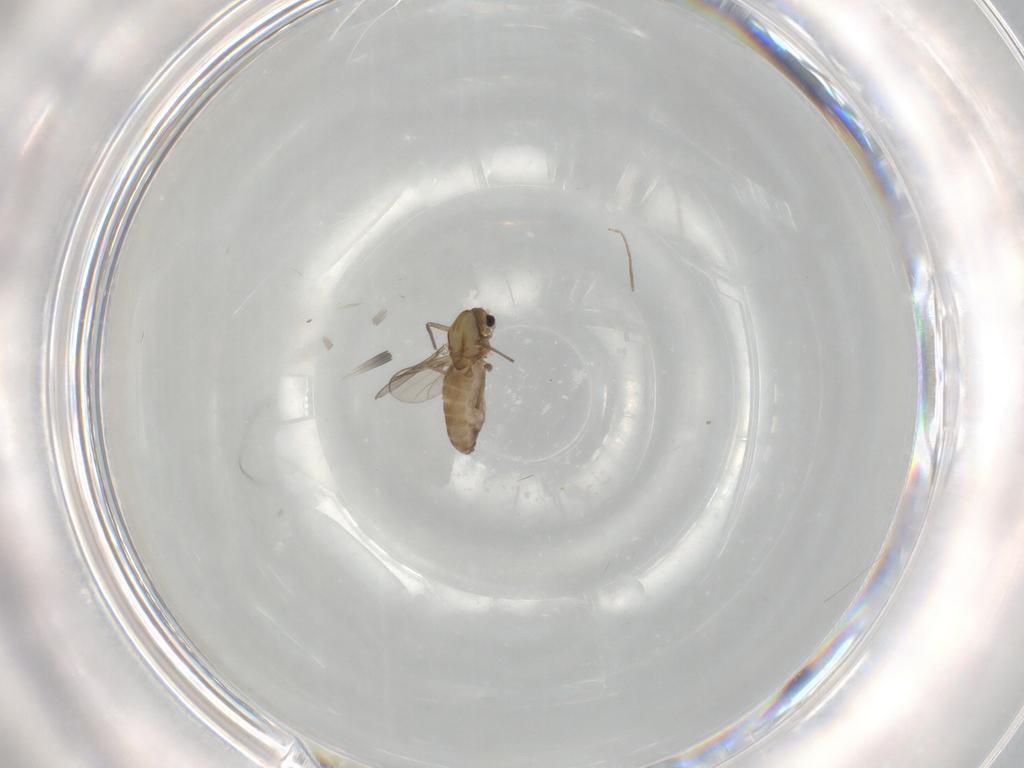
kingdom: Animalia
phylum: Arthropoda
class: Insecta
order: Diptera
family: Chironomidae
